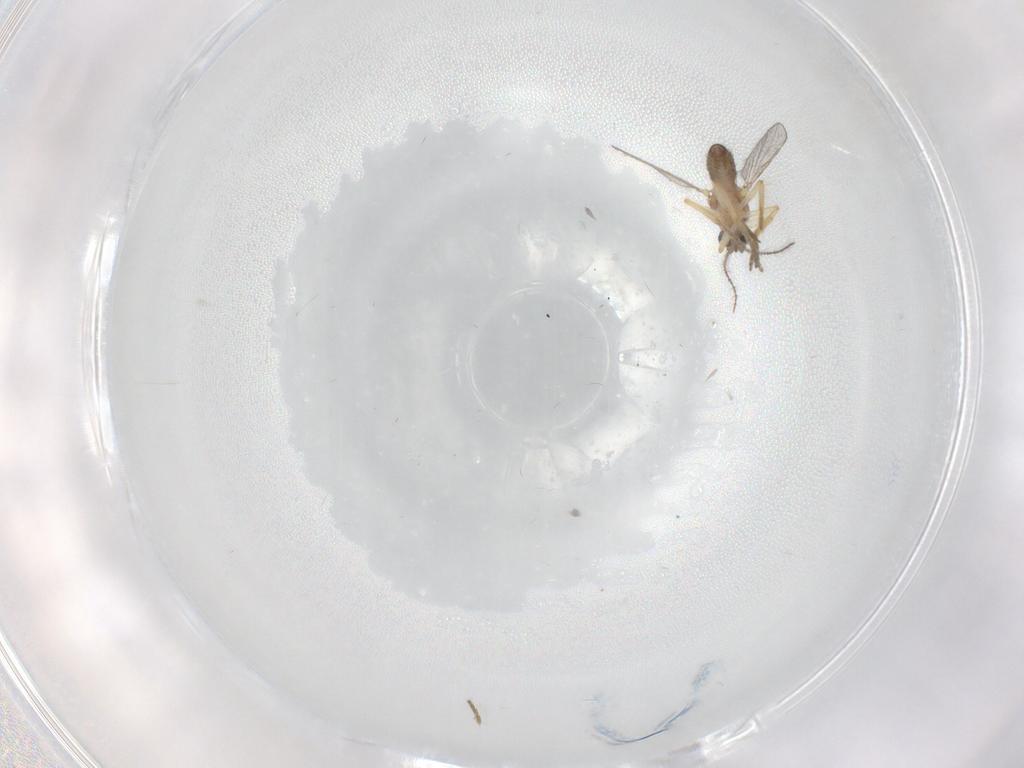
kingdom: Animalia
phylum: Arthropoda
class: Insecta
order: Diptera
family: Ceratopogonidae
